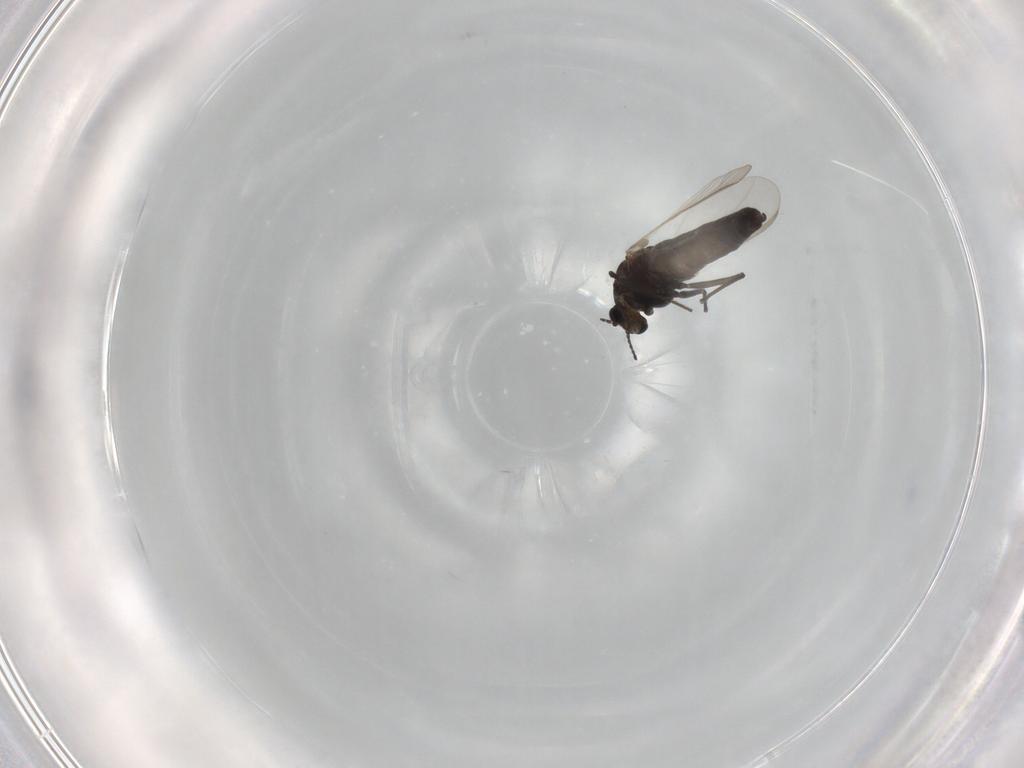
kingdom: Animalia
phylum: Arthropoda
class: Insecta
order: Diptera
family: Chironomidae
